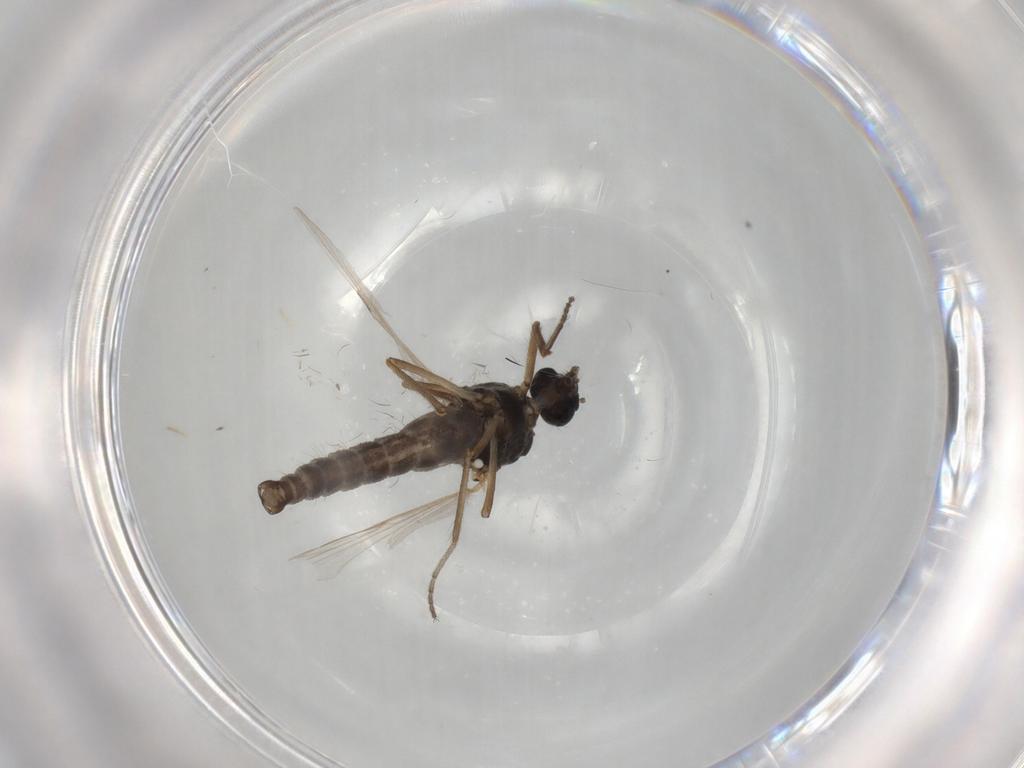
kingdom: Animalia
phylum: Arthropoda
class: Insecta
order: Diptera
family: Ceratopogonidae
